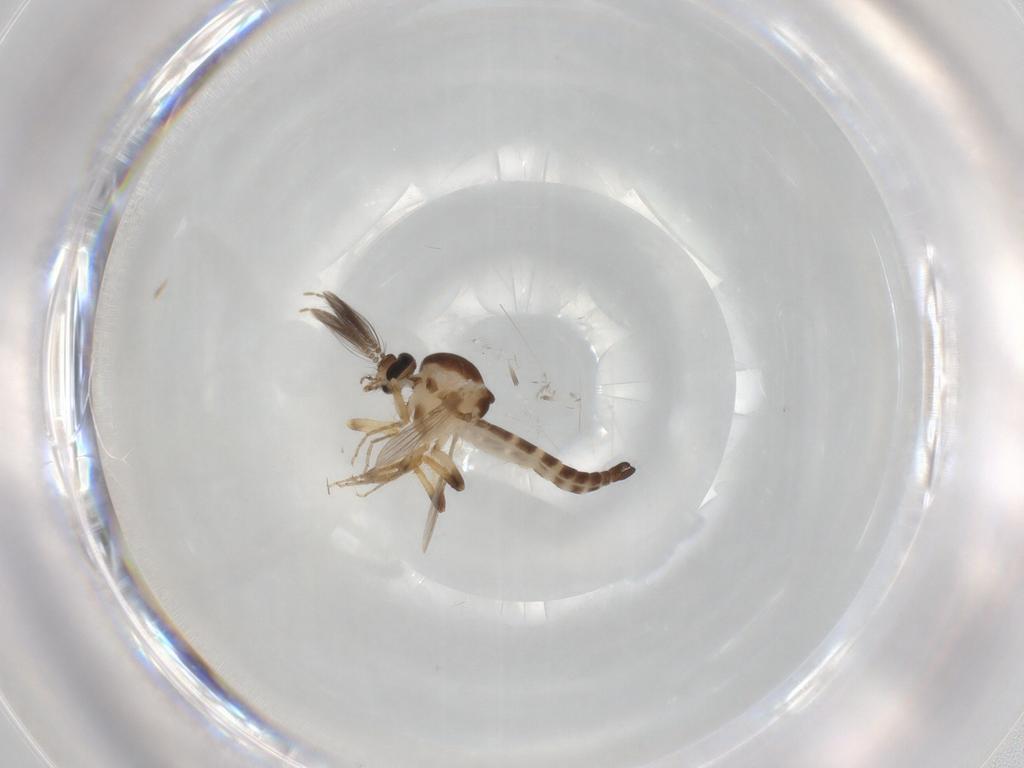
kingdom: Animalia
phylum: Arthropoda
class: Insecta
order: Diptera
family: Ceratopogonidae
